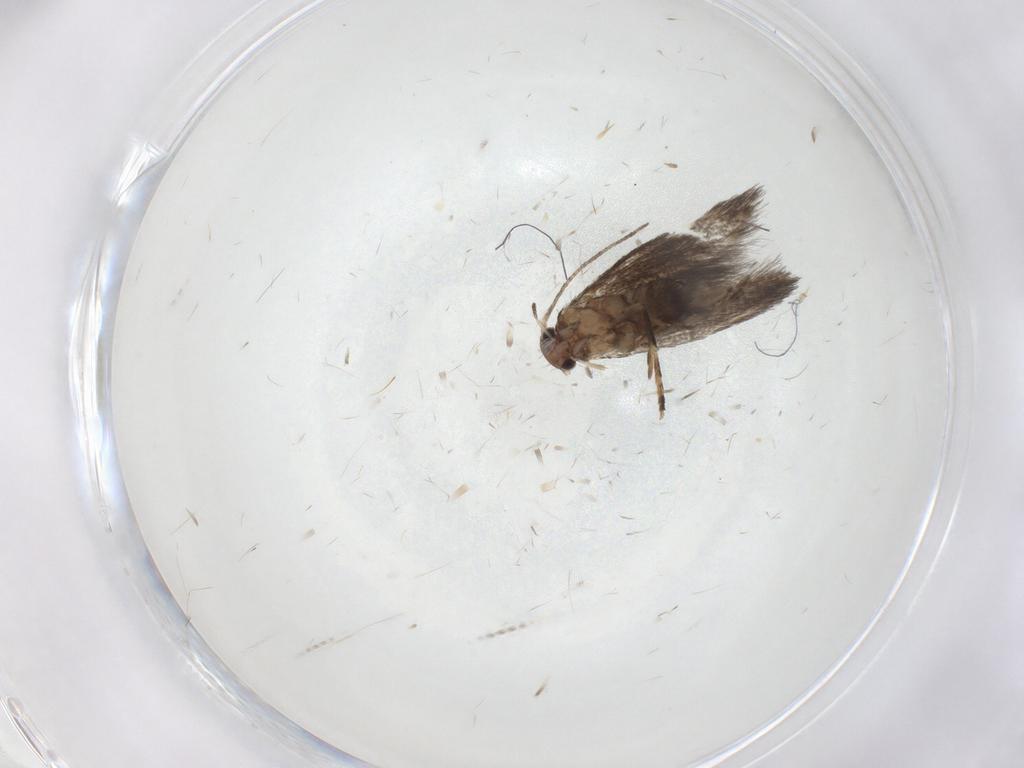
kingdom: Animalia
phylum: Arthropoda
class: Insecta
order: Lepidoptera
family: Elachistidae
